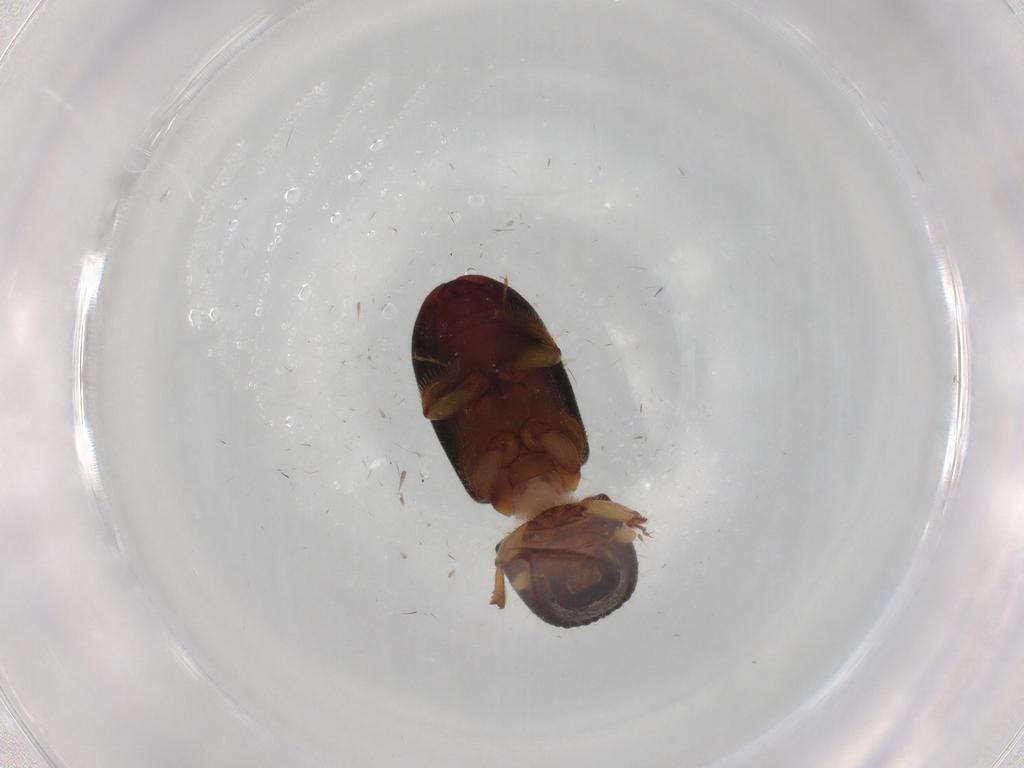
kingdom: Animalia
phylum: Arthropoda
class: Insecta
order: Coleoptera
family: Curculionidae
